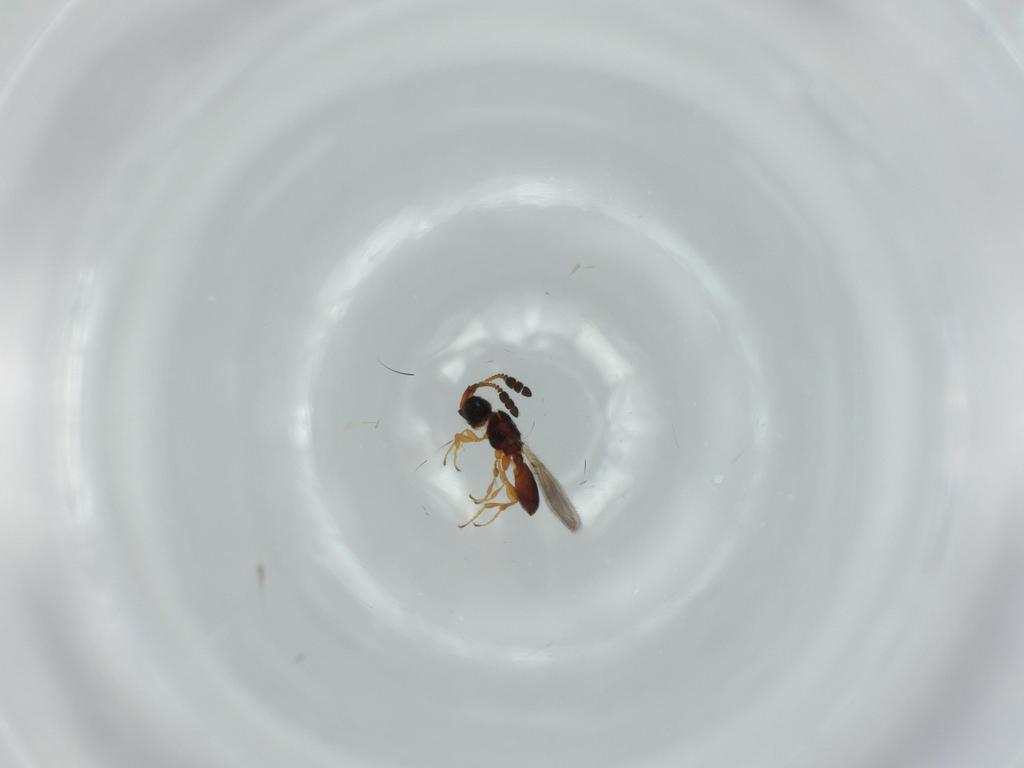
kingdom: Animalia
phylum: Arthropoda
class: Insecta
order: Hymenoptera
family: Diapriidae
